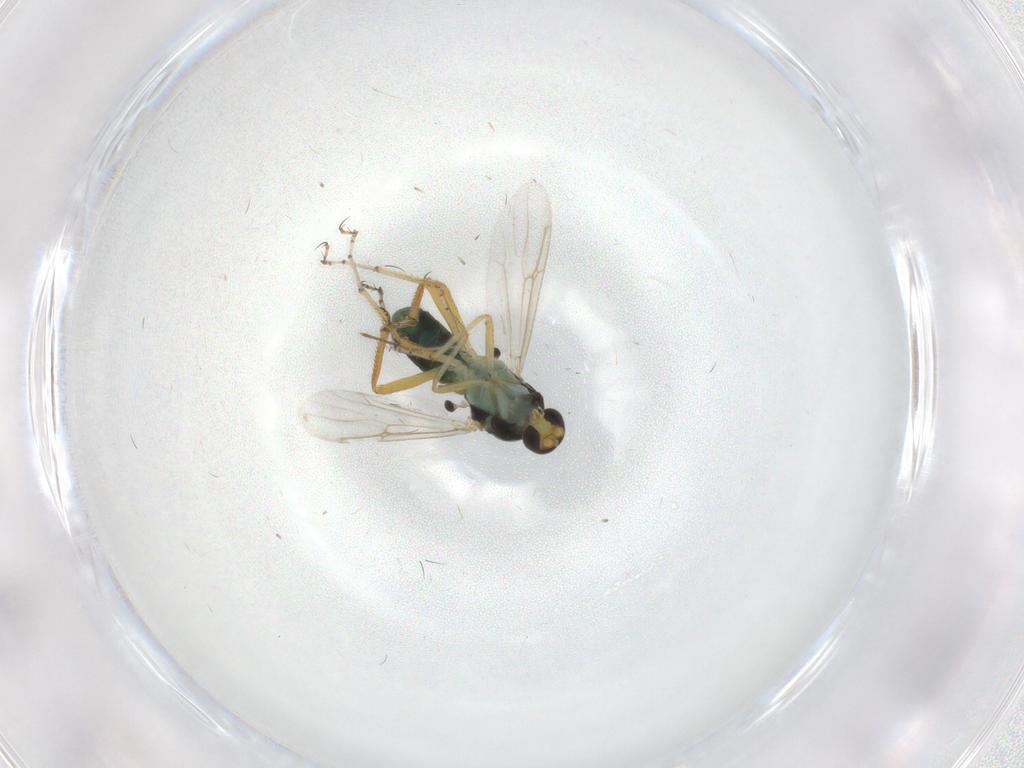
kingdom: Animalia
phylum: Arthropoda
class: Insecta
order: Diptera
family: Ceratopogonidae
